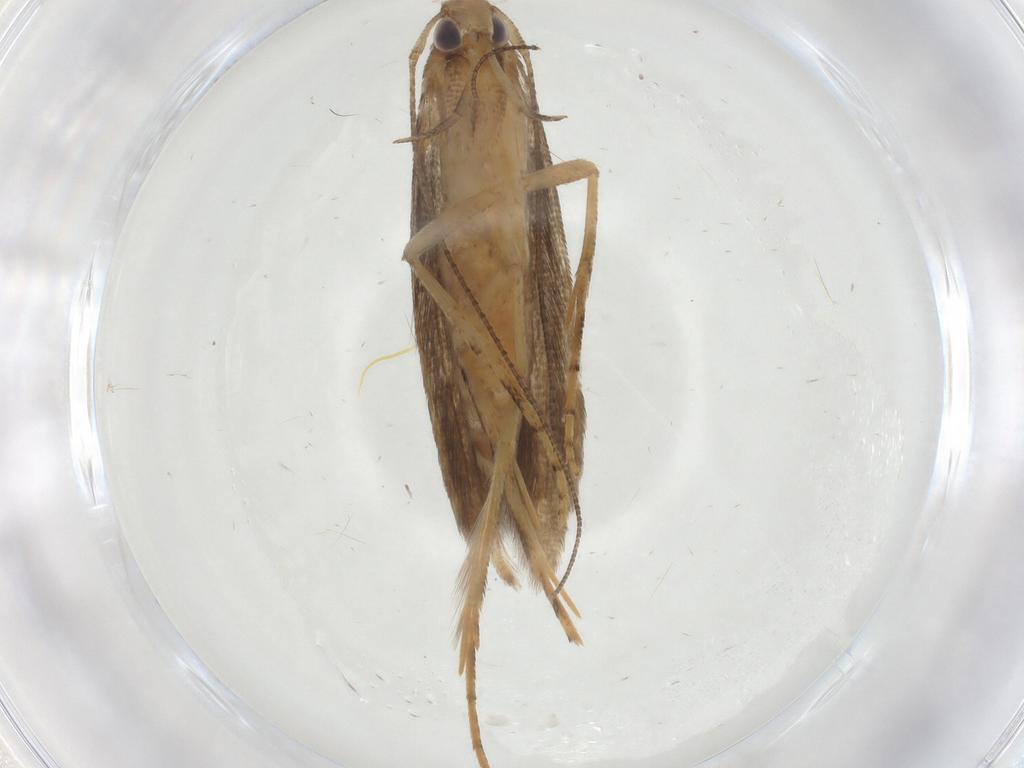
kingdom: Animalia
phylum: Arthropoda
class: Insecta
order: Lepidoptera
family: Heliodinidae
